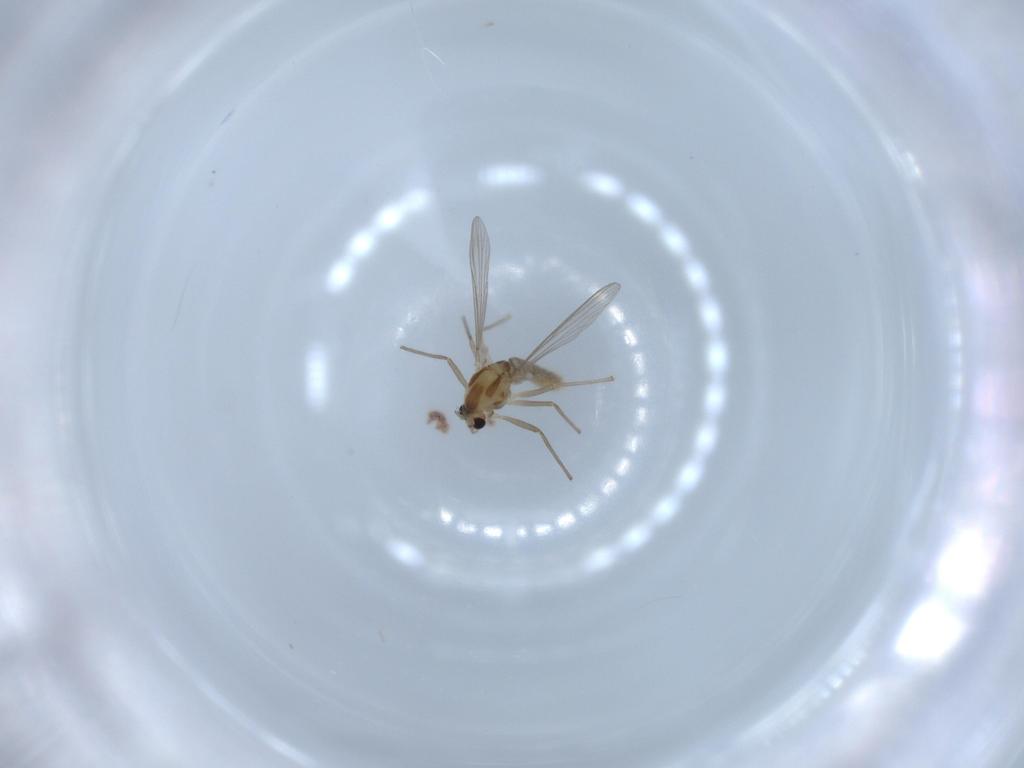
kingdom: Animalia
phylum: Arthropoda
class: Insecta
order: Diptera
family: Chironomidae
